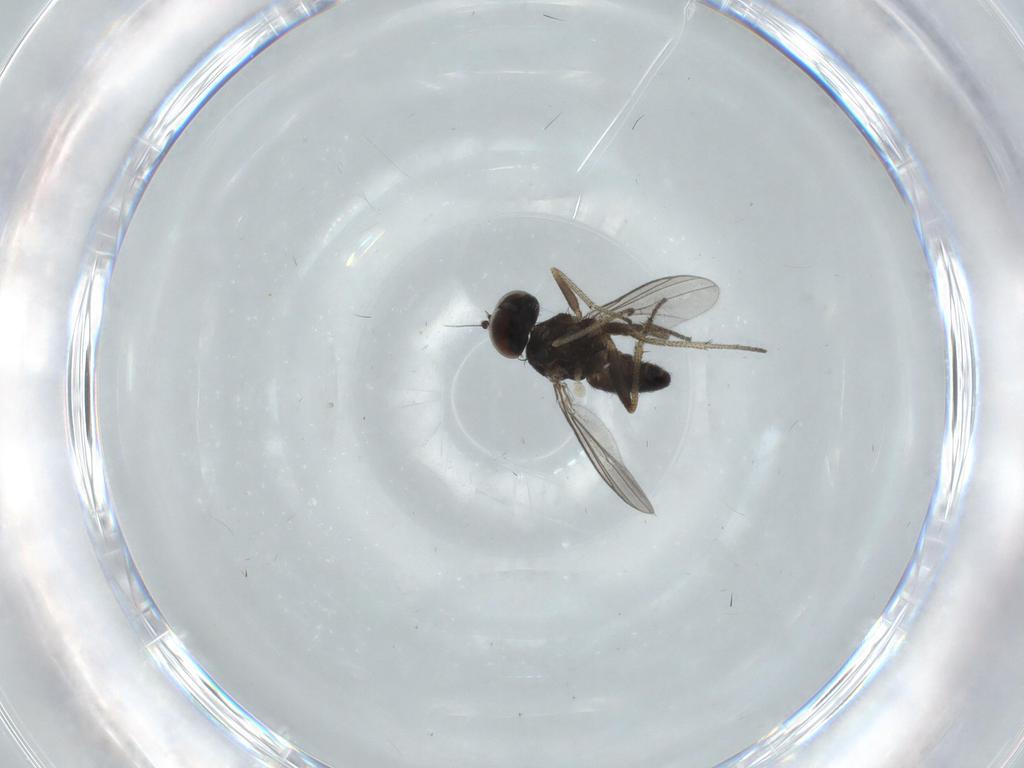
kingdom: Animalia
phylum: Arthropoda
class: Insecta
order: Diptera
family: Dolichopodidae
